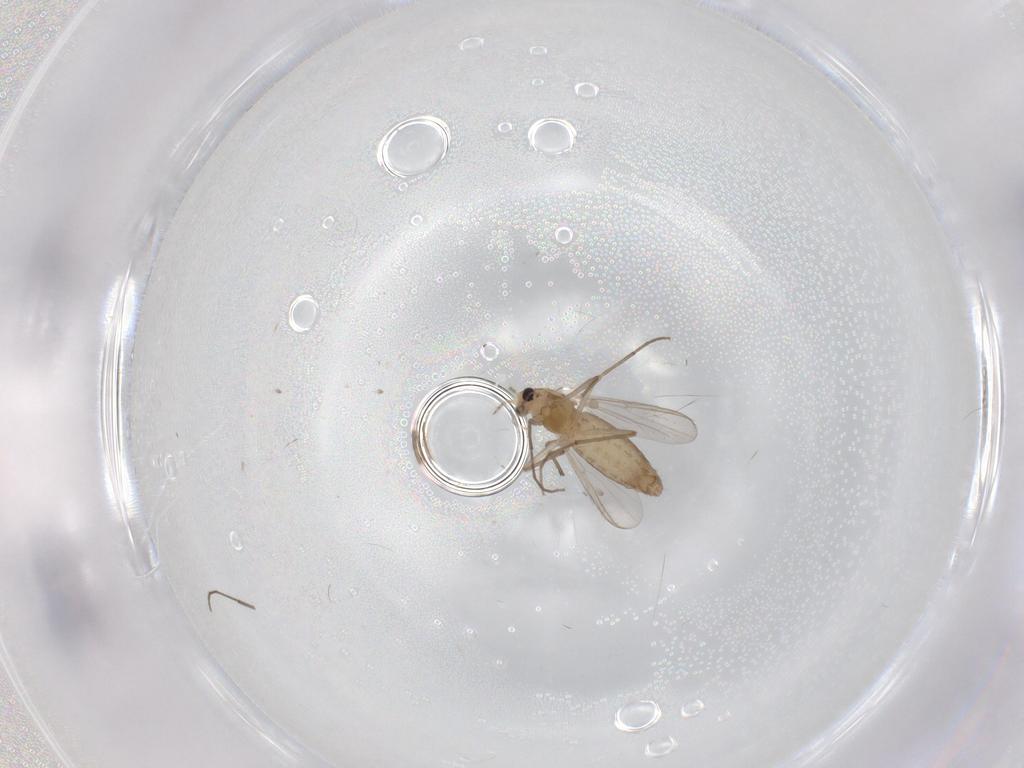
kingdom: Animalia
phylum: Arthropoda
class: Insecta
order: Diptera
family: Chironomidae
